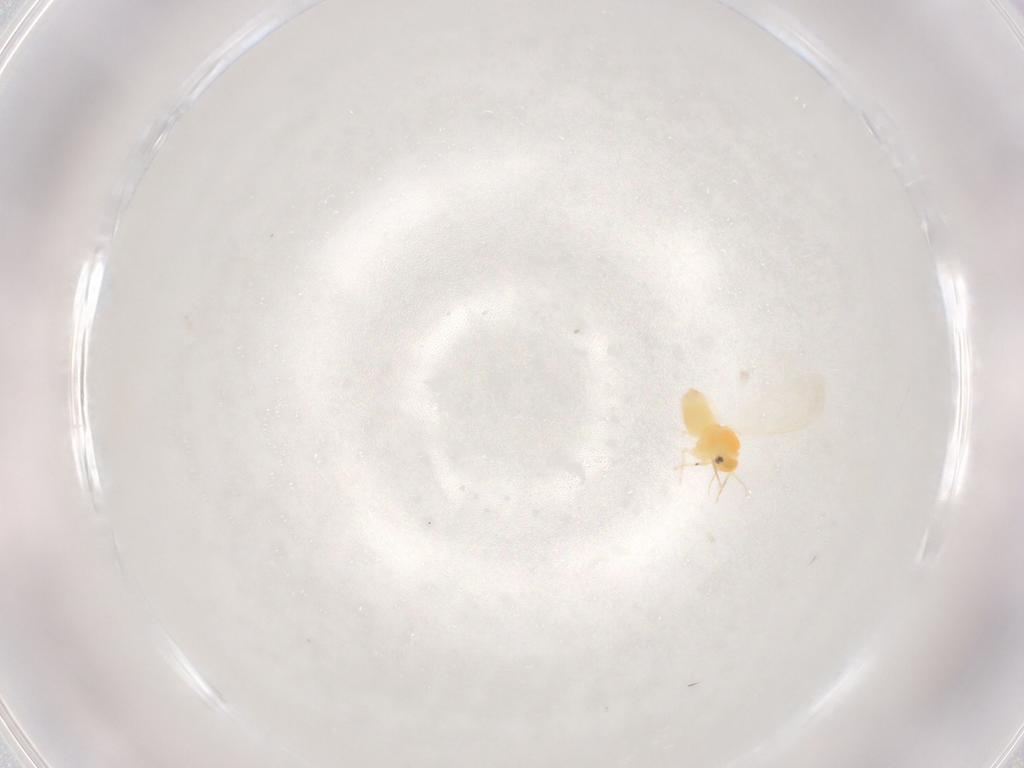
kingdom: Animalia
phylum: Arthropoda
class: Insecta
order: Hemiptera
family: Aleyrodidae
